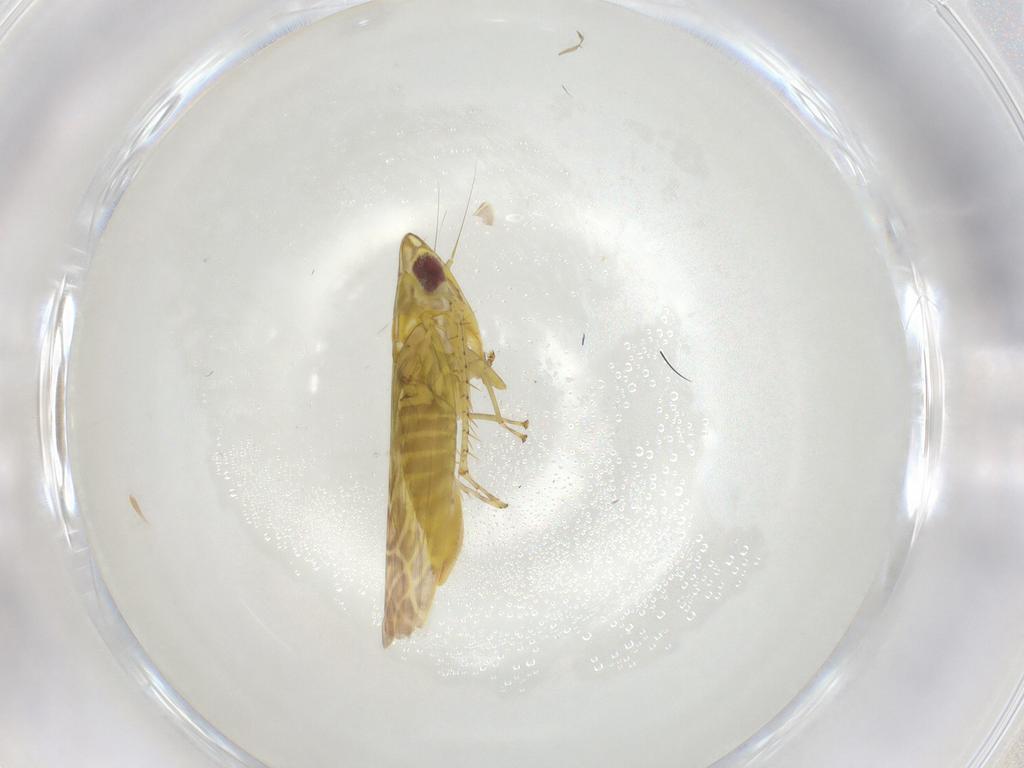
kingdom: Animalia
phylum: Arthropoda
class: Insecta
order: Hemiptera
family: Cicadellidae
